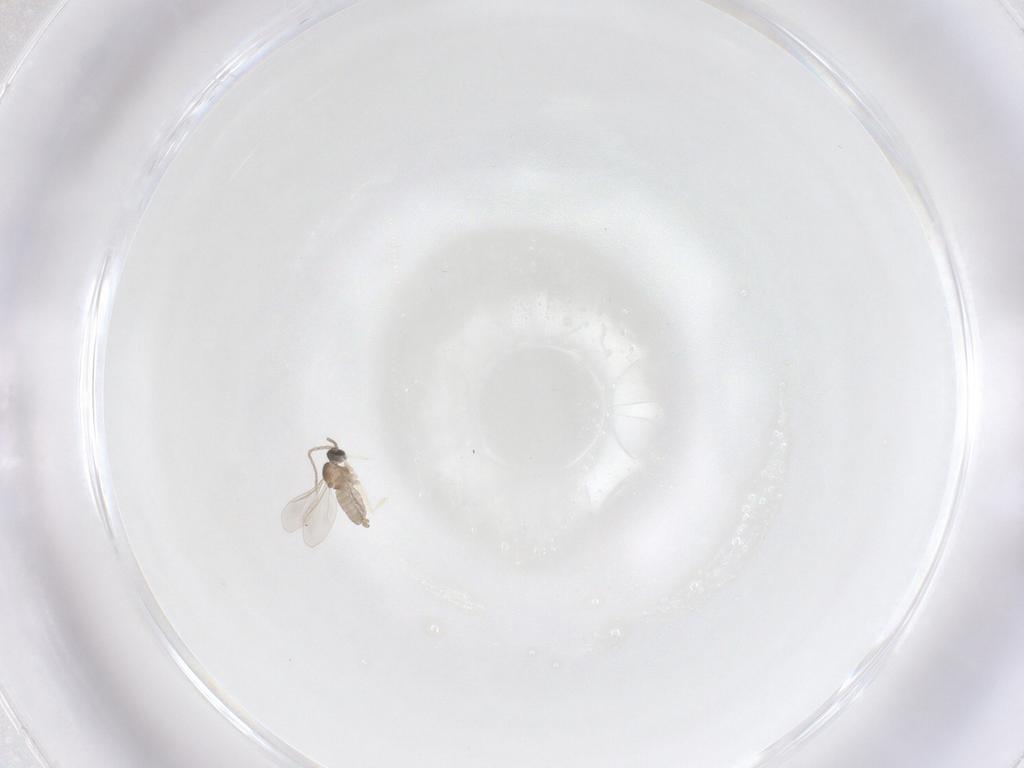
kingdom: Animalia
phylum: Arthropoda
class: Insecta
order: Diptera
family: Cecidomyiidae
